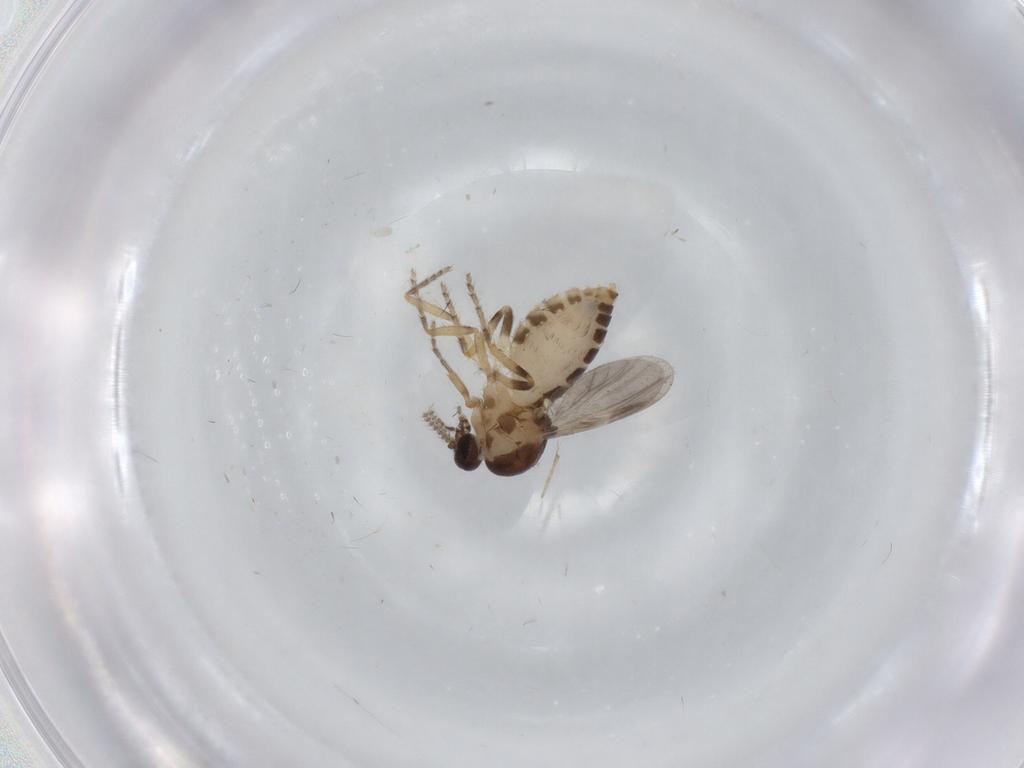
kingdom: Animalia
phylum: Arthropoda
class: Insecta
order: Diptera
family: Ceratopogonidae
